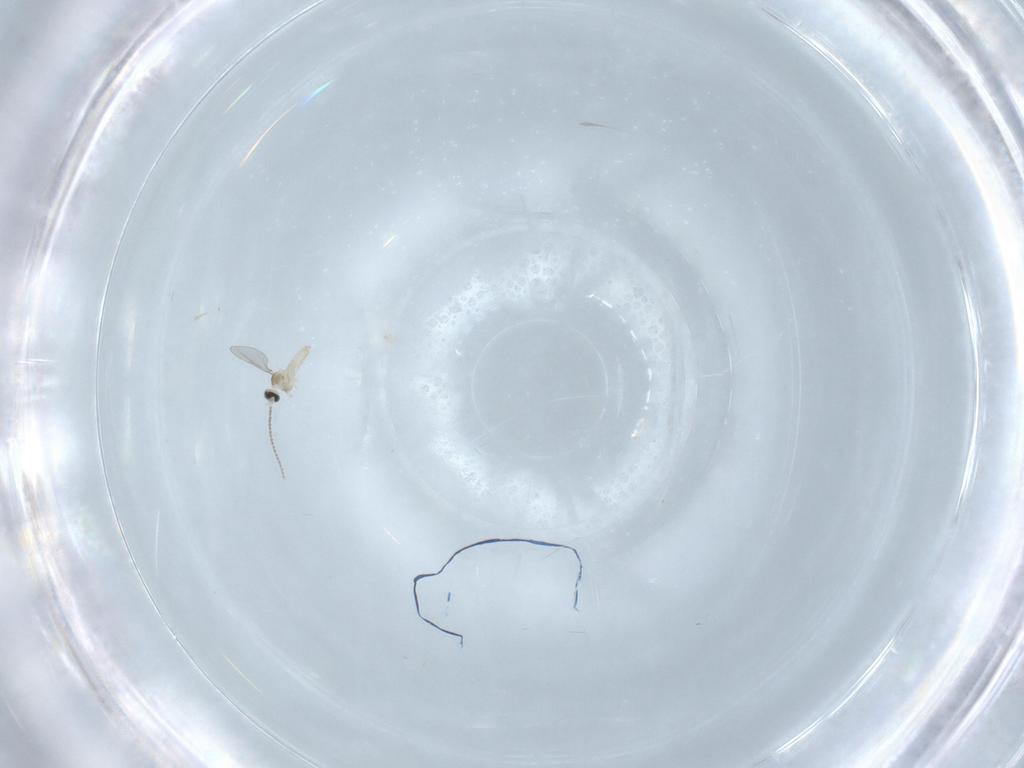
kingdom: Animalia
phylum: Arthropoda
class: Insecta
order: Diptera
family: Cecidomyiidae
